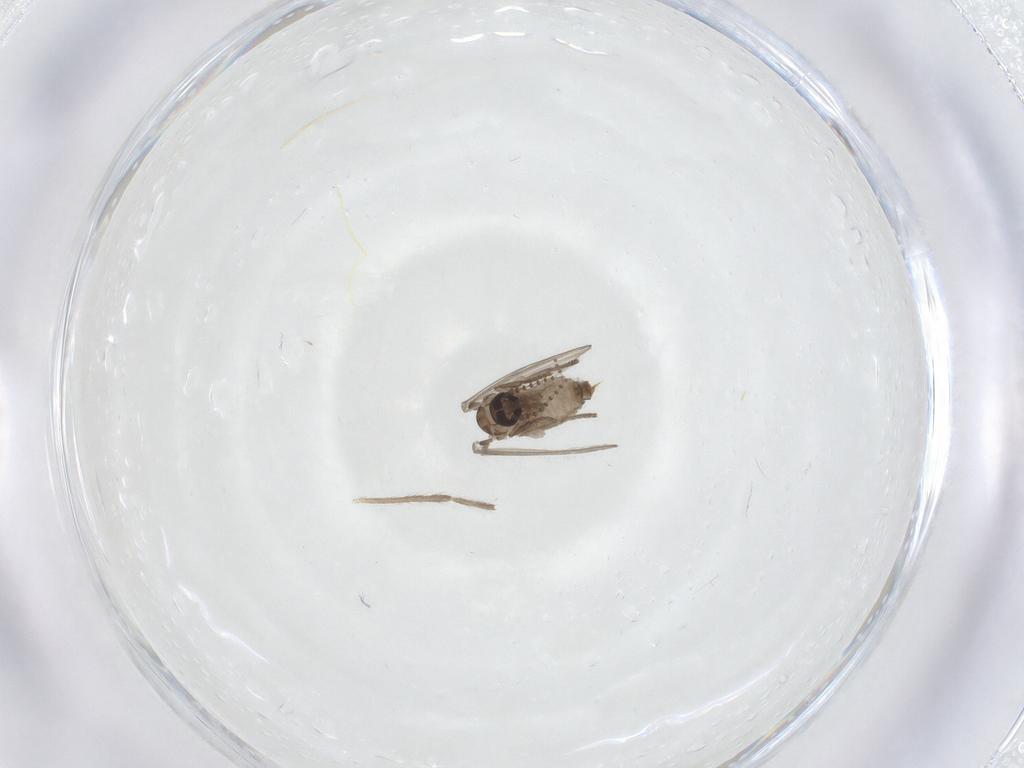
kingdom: Animalia
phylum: Arthropoda
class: Insecta
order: Diptera
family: Psychodidae
